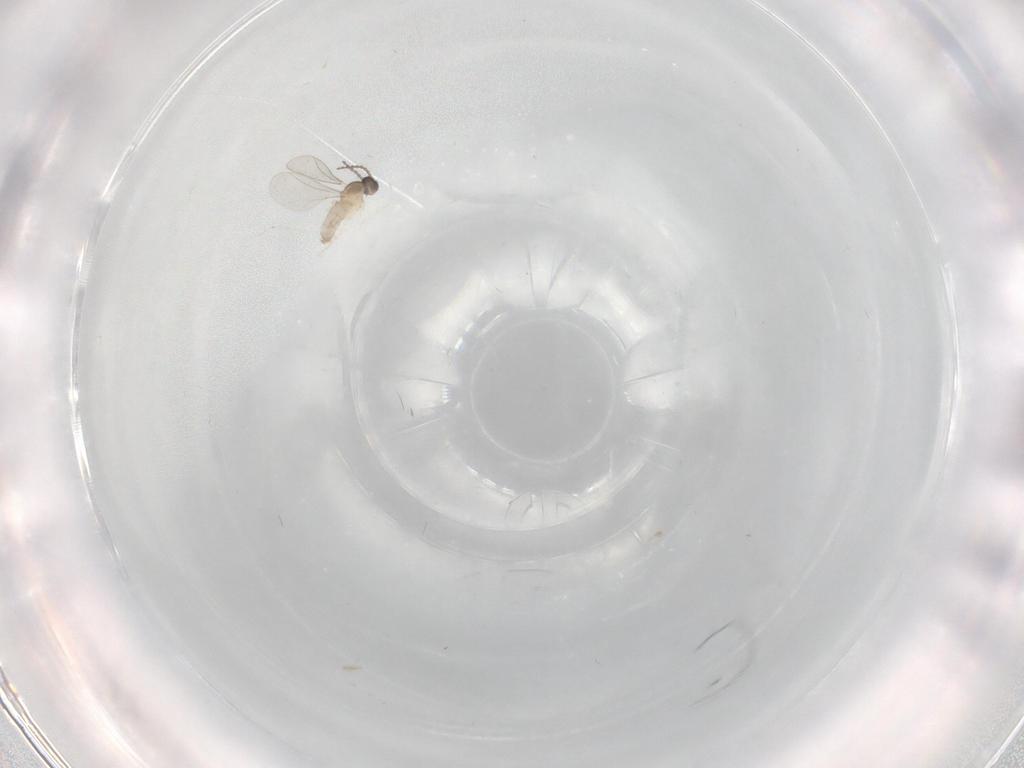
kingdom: Animalia
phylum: Arthropoda
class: Insecta
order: Diptera
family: Cecidomyiidae
